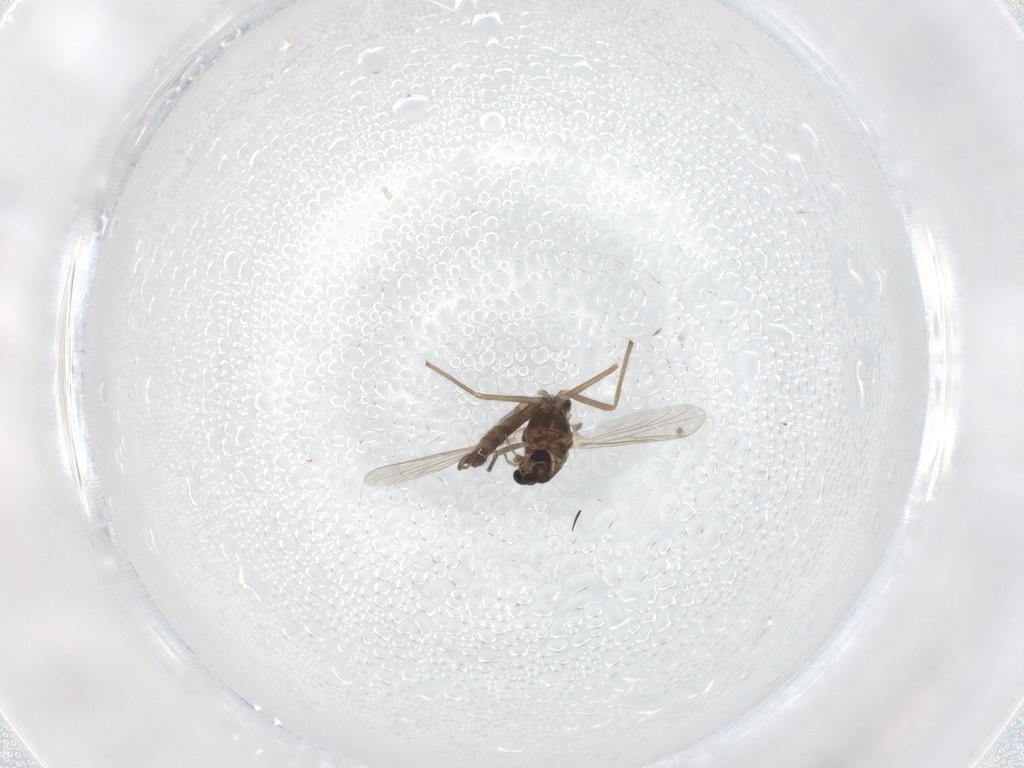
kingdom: Animalia
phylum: Arthropoda
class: Insecta
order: Diptera
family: Chironomidae
